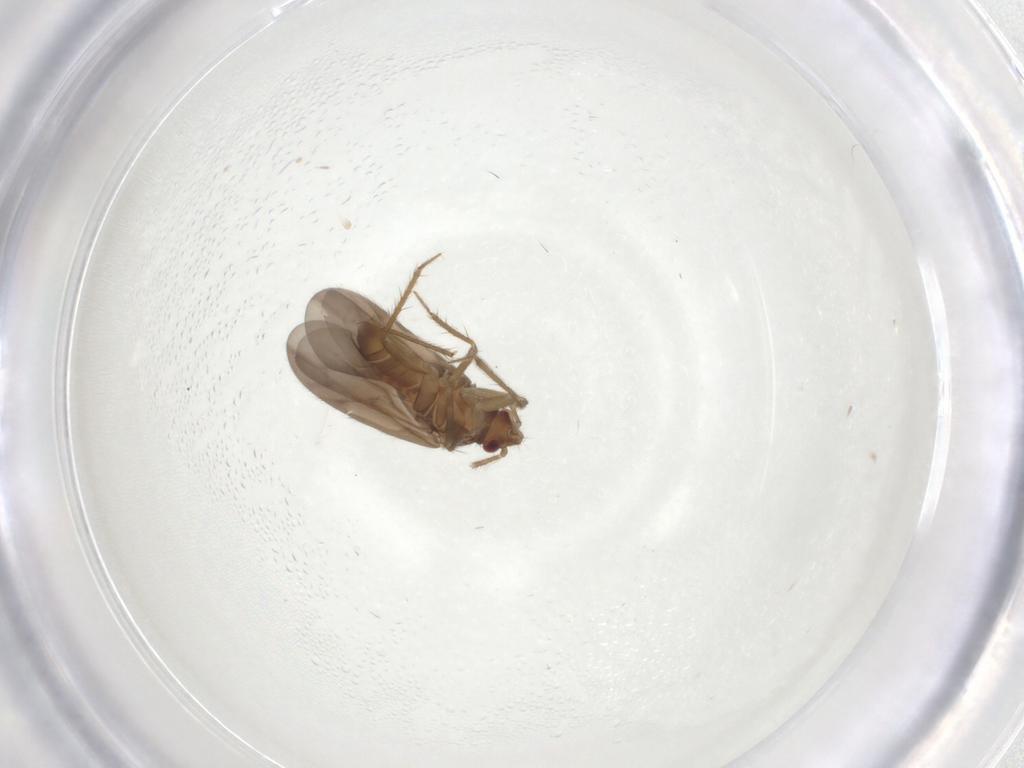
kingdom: Animalia
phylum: Arthropoda
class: Insecta
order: Hemiptera
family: Ceratocombidae
